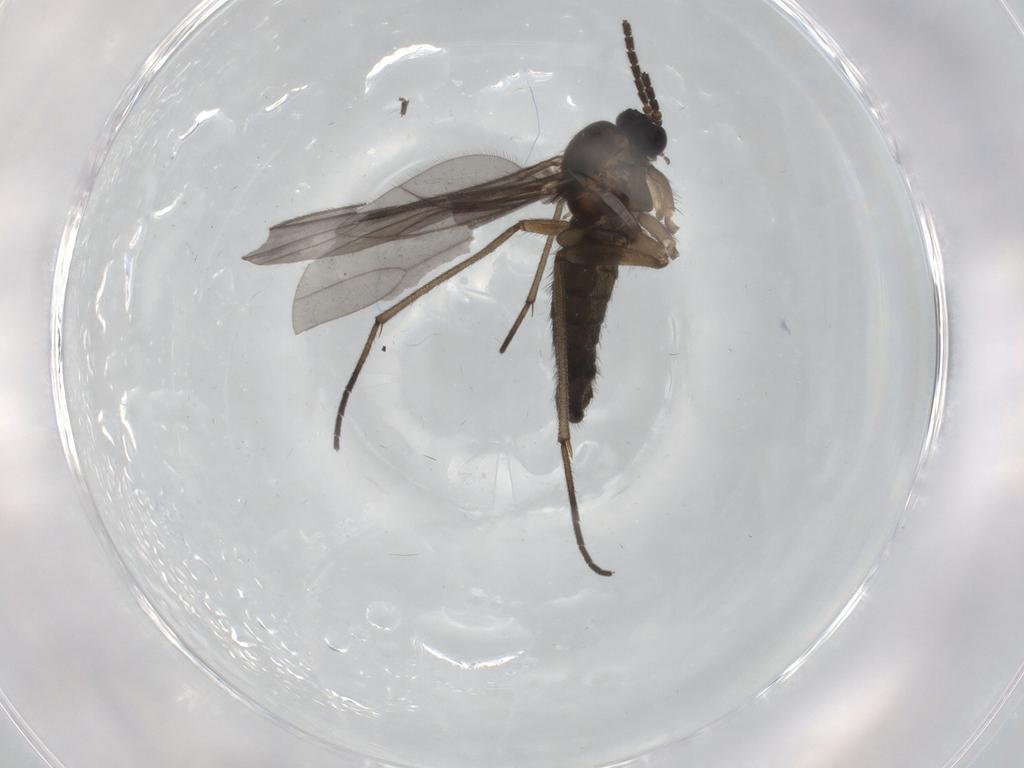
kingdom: Animalia
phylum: Arthropoda
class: Insecta
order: Diptera
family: Sciaridae
